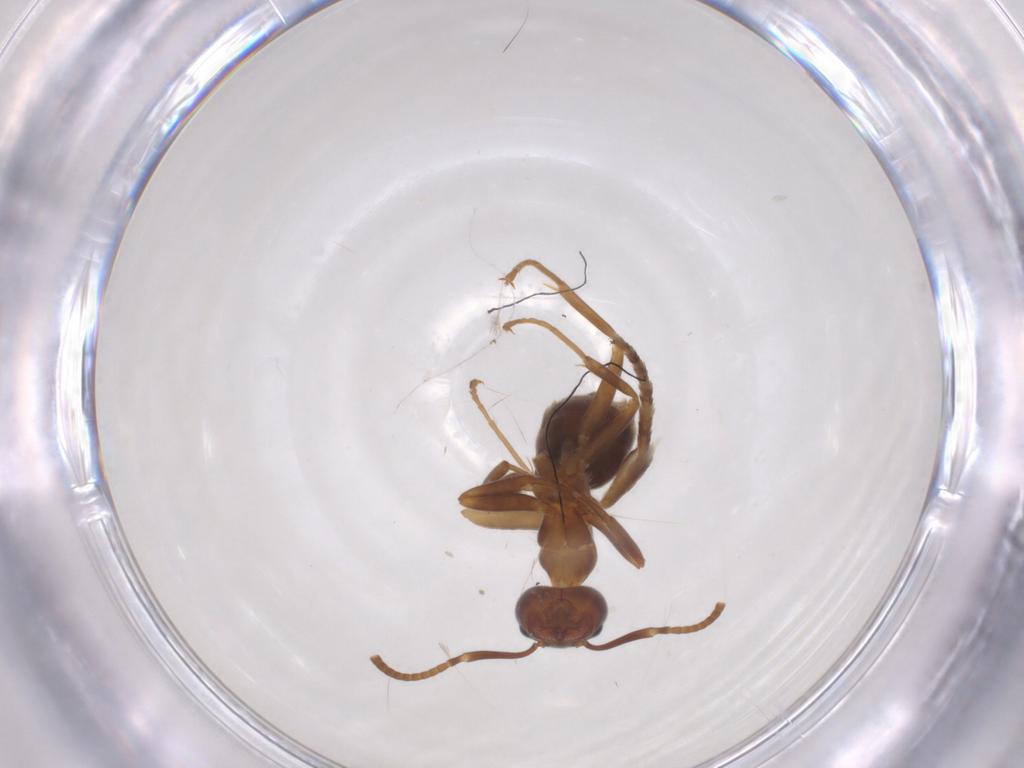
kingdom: Animalia
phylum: Arthropoda
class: Insecta
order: Hymenoptera
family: Formicidae
